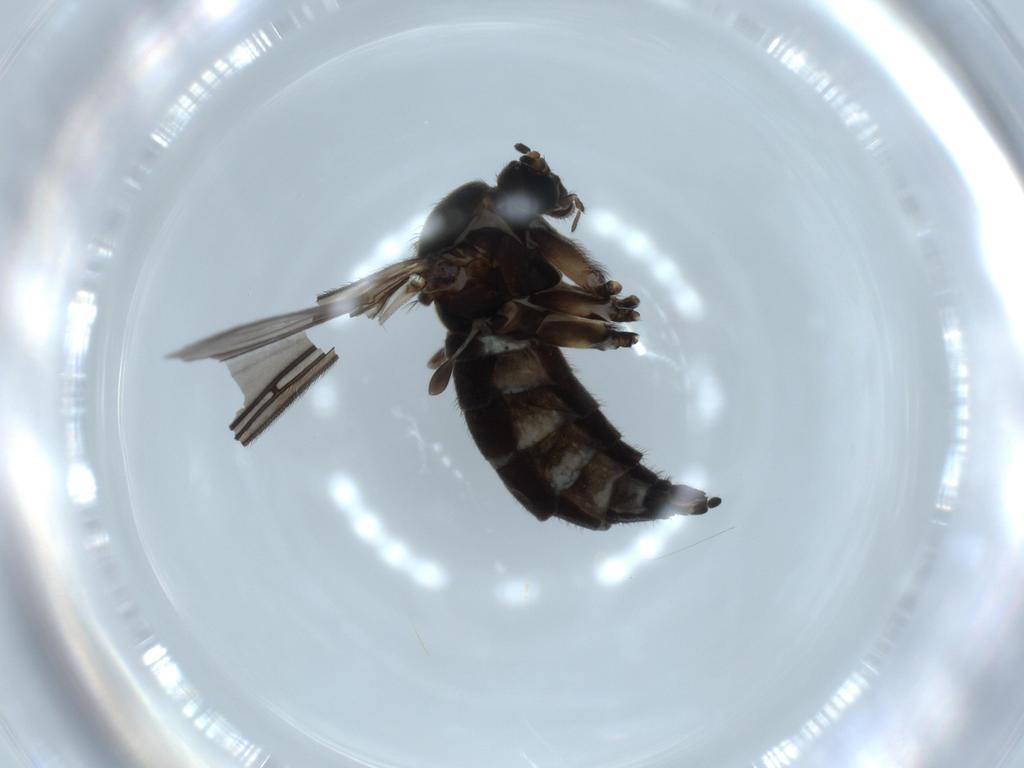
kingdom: Animalia
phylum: Arthropoda
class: Insecta
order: Diptera
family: Sciaridae
